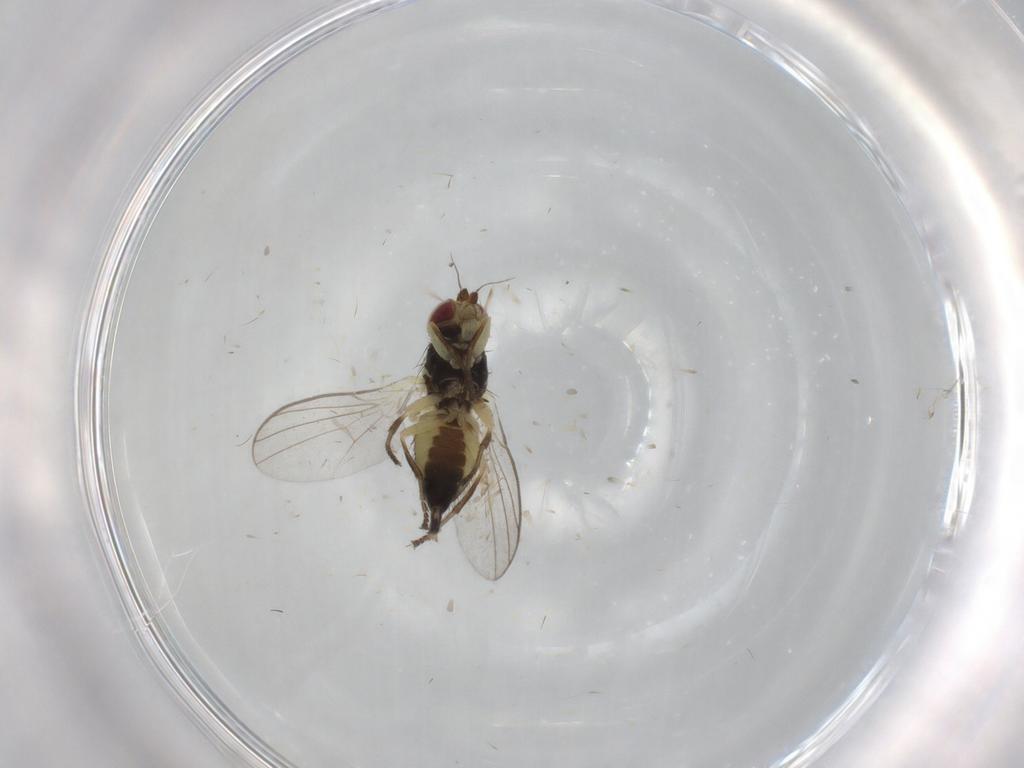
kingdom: Animalia
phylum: Arthropoda
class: Insecta
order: Diptera
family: Agromyzidae
